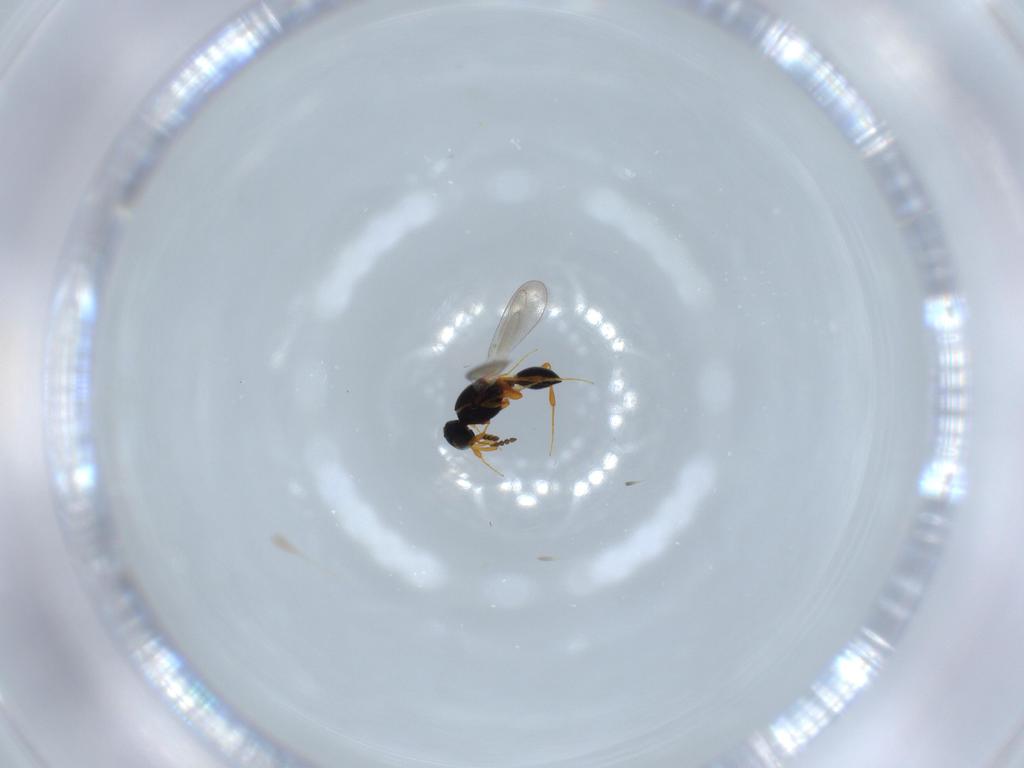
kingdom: Animalia
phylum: Arthropoda
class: Insecta
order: Hymenoptera
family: Platygastridae
